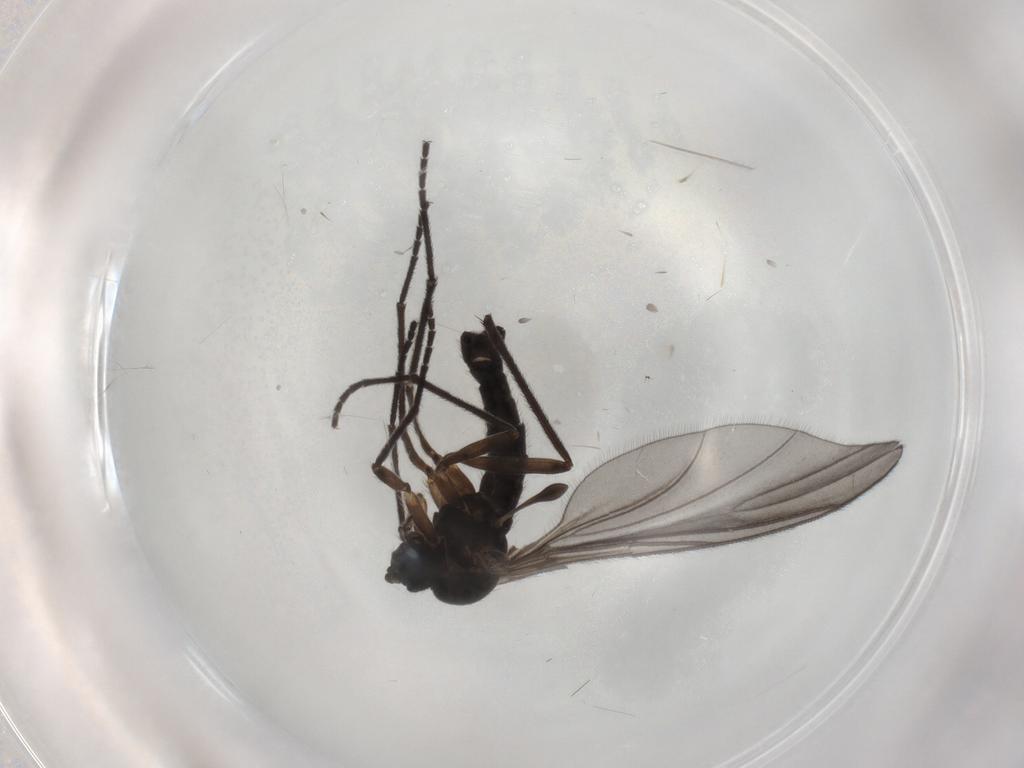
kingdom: Animalia
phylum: Arthropoda
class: Insecta
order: Diptera
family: Sciaridae
